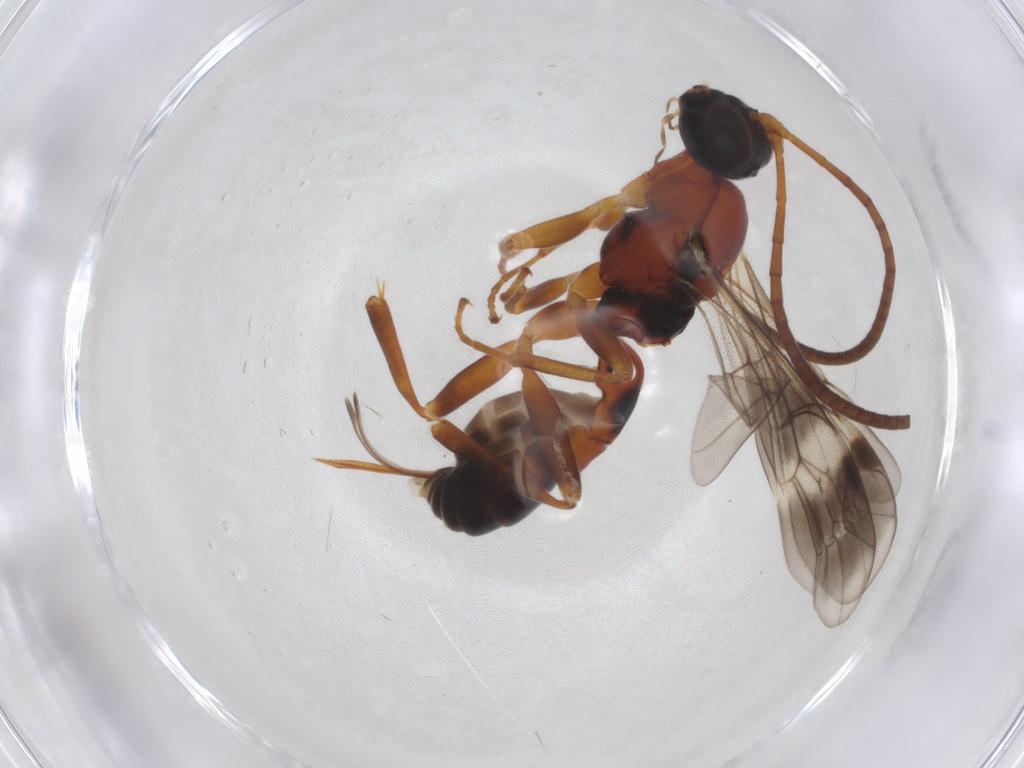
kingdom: Animalia
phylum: Arthropoda
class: Insecta
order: Hymenoptera
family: Formicidae
